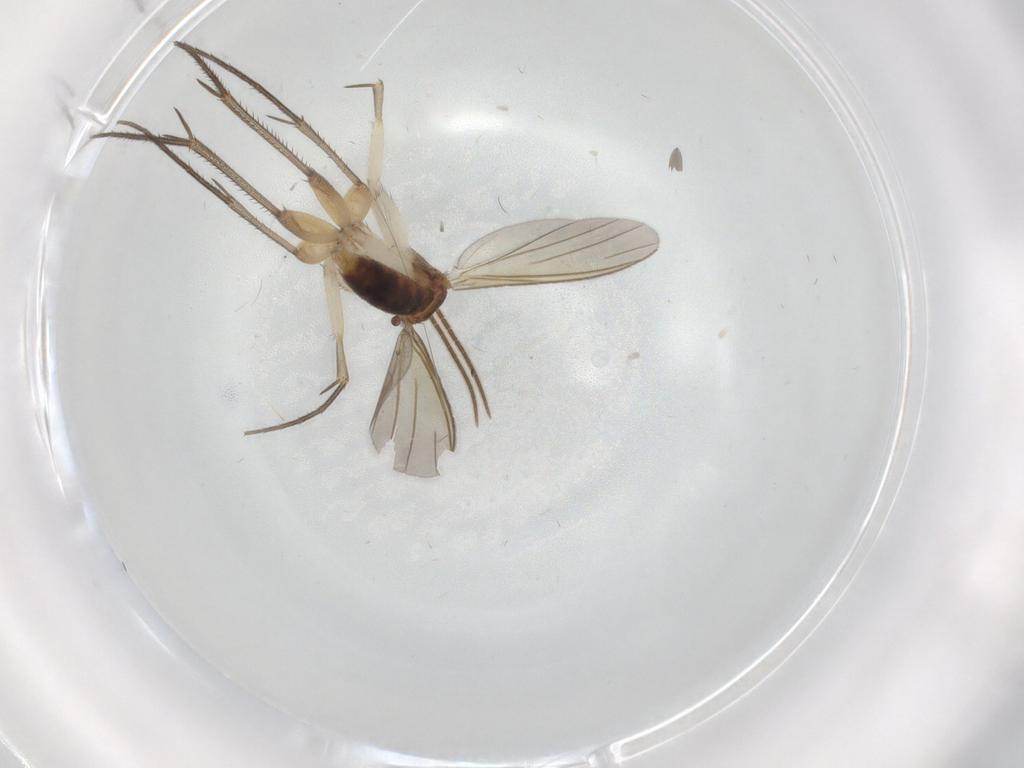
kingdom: Animalia
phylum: Arthropoda
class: Insecta
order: Diptera
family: Mycetophilidae
